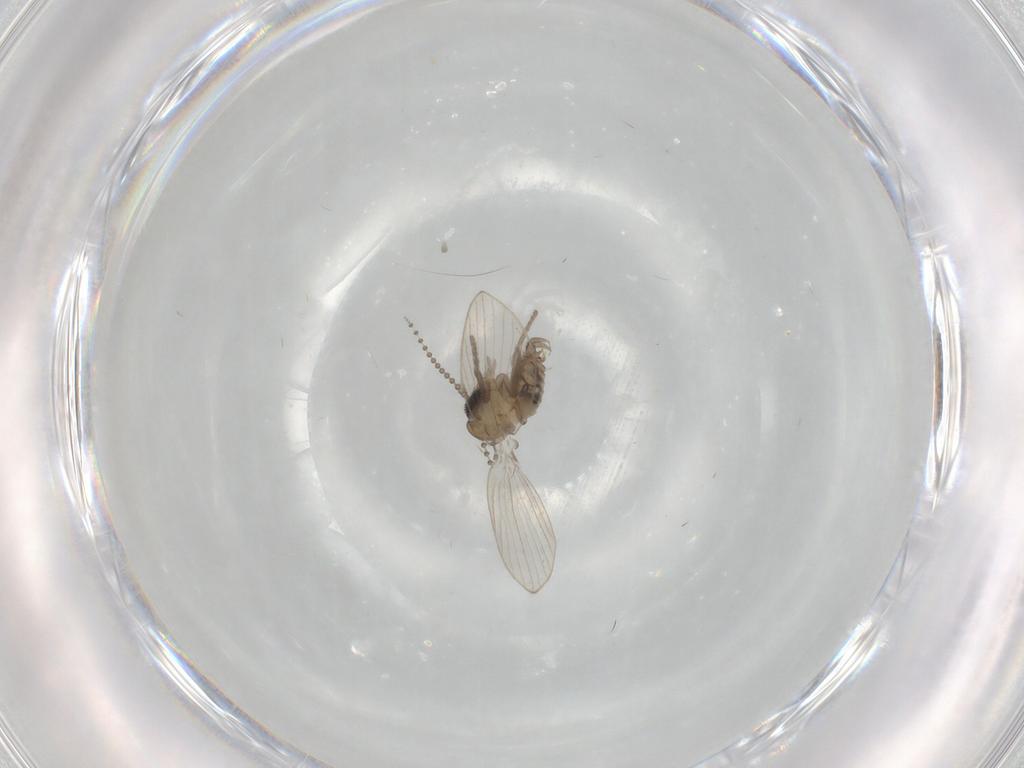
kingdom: Animalia
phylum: Arthropoda
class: Insecta
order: Diptera
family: Psychodidae
